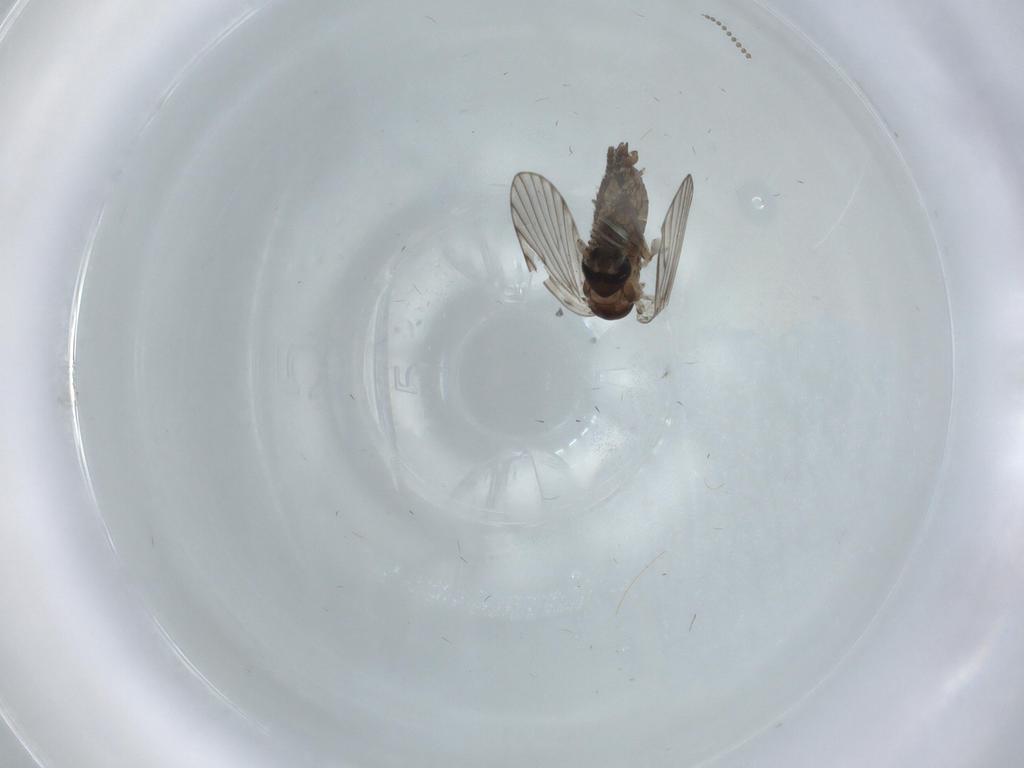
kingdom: Animalia
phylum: Arthropoda
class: Insecta
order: Diptera
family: Psychodidae
